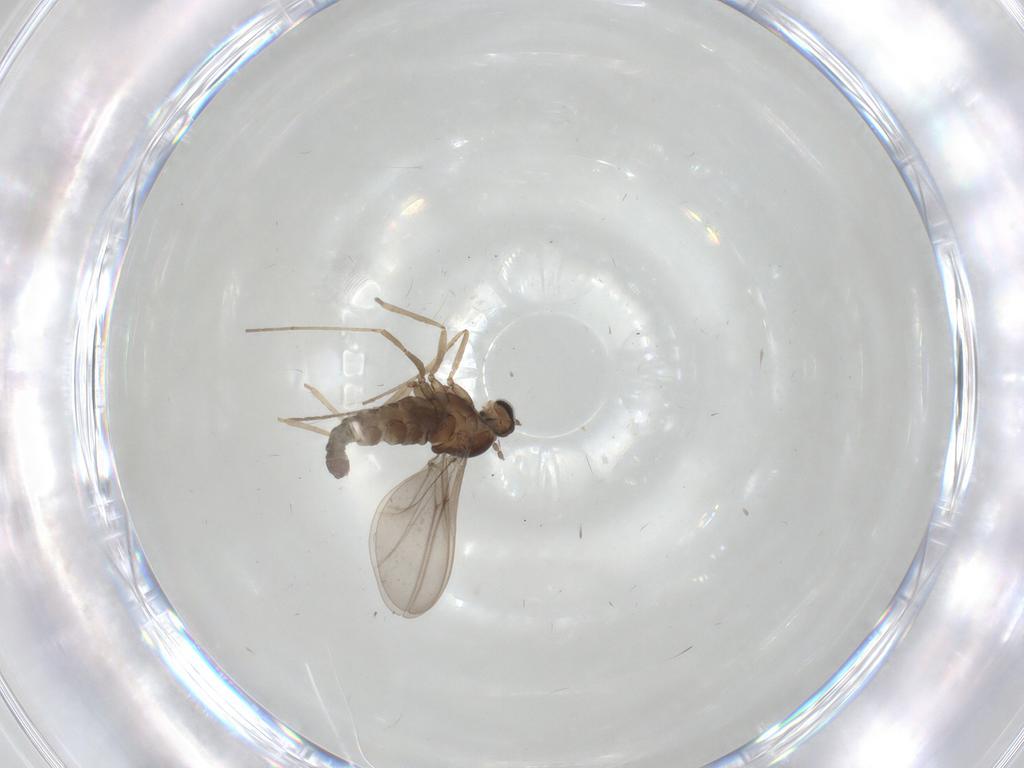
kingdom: Animalia
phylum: Arthropoda
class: Insecta
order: Diptera
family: Cecidomyiidae
